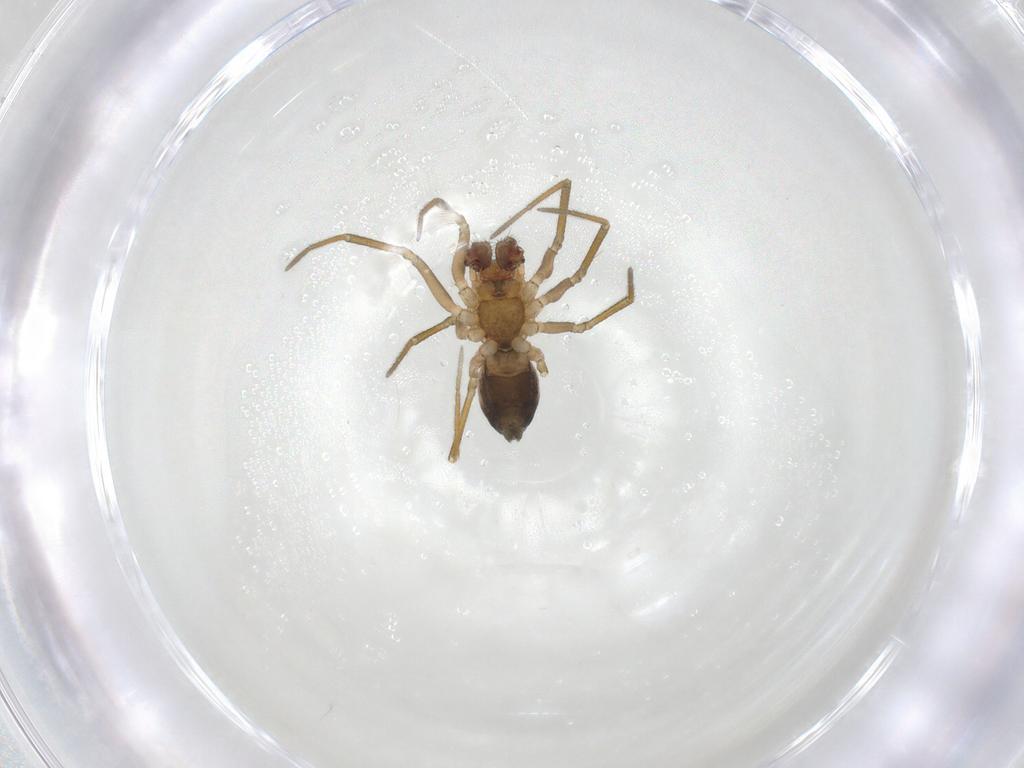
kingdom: Animalia
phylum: Arthropoda
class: Arachnida
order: Araneae
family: Linyphiidae
